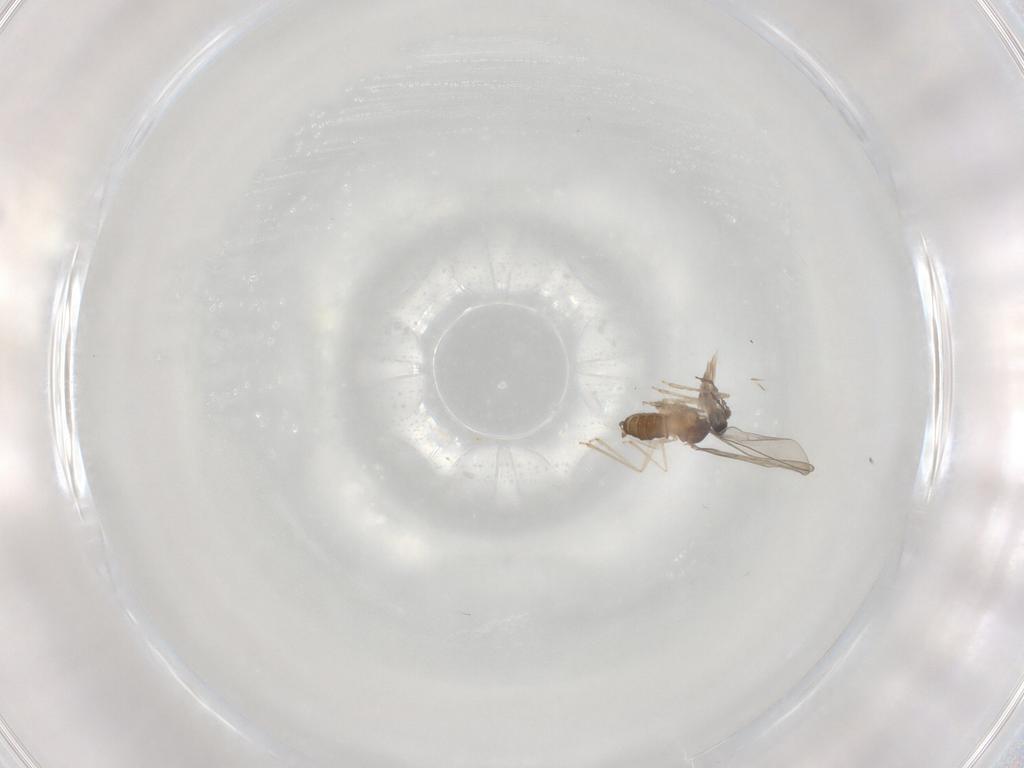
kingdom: Animalia
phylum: Arthropoda
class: Insecta
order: Diptera
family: Cecidomyiidae
